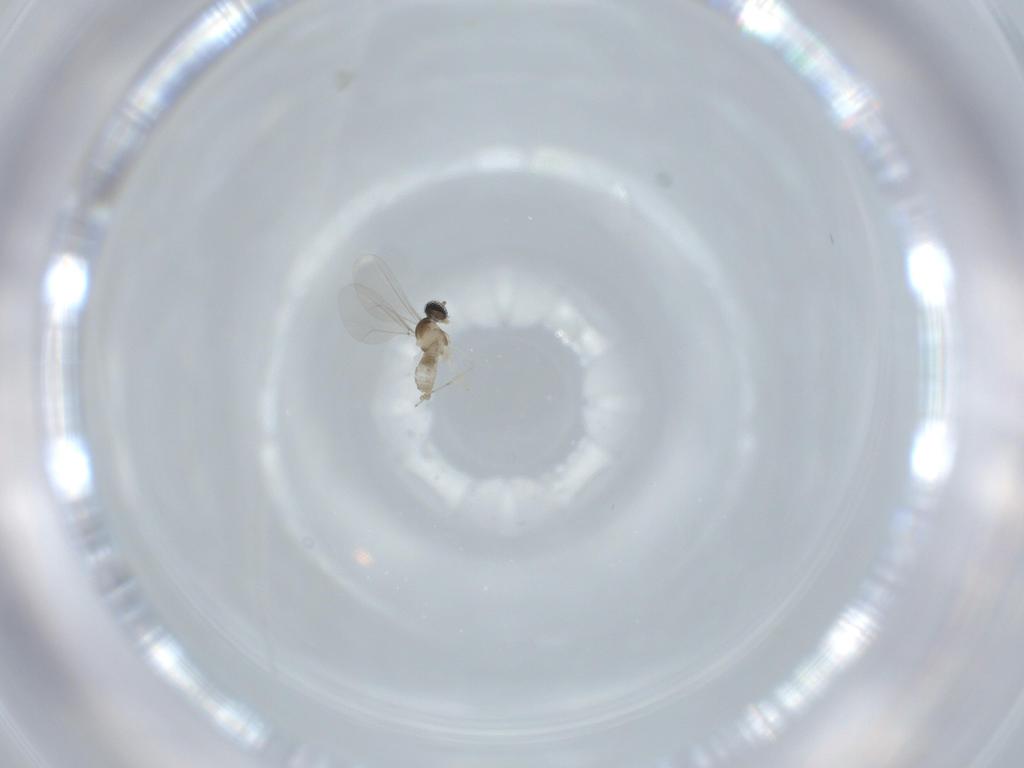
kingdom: Animalia
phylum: Arthropoda
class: Insecta
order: Diptera
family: Cecidomyiidae
